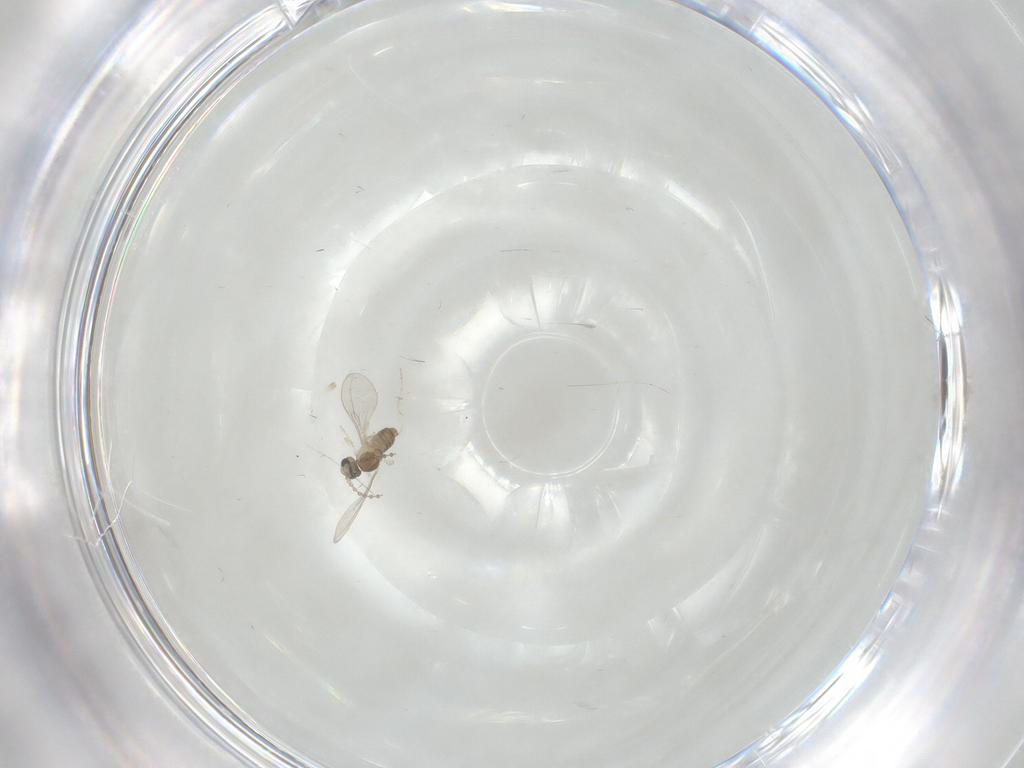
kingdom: Animalia
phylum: Arthropoda
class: Insecta
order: Diptera
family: Cecidomyiidae
